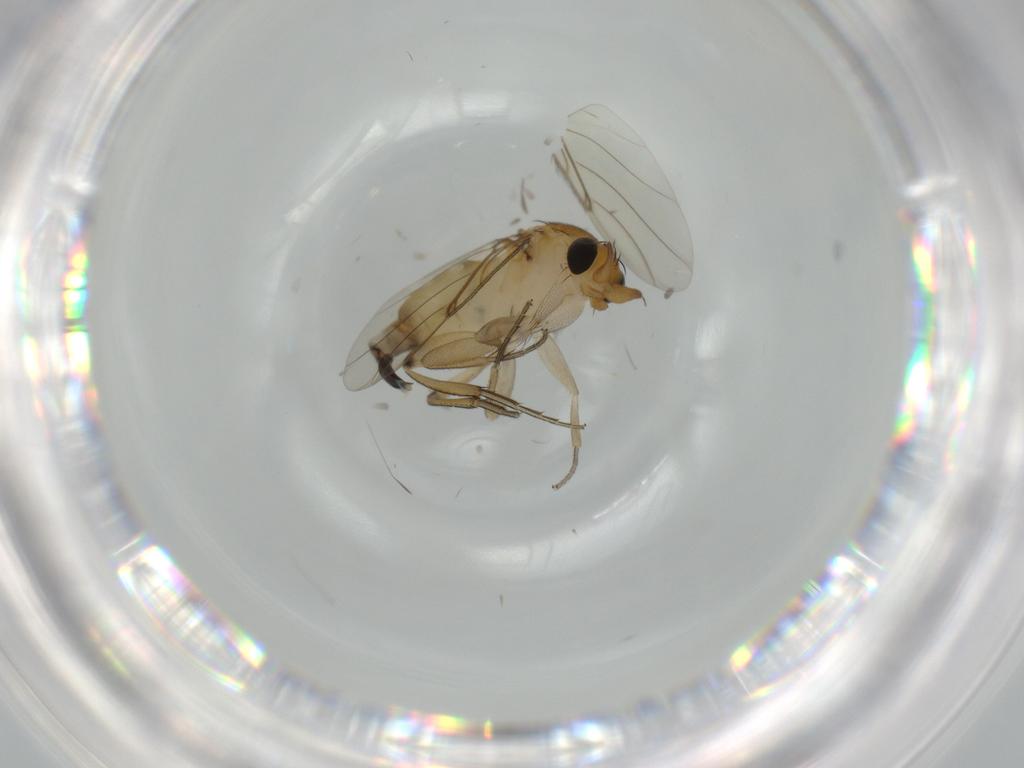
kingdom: Animalia
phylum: Arthropoda
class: Insecta
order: Diptera
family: Phoridae
